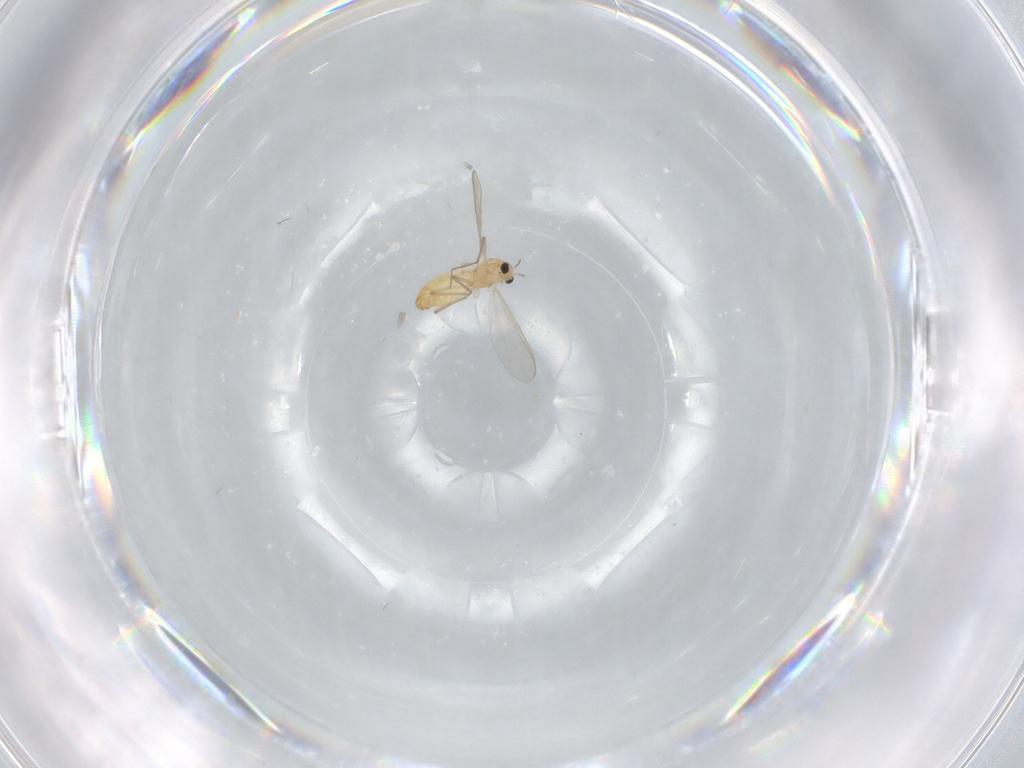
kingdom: Animalia
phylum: Arthropoda
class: Insecta
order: Diptera
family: Chironomidae
